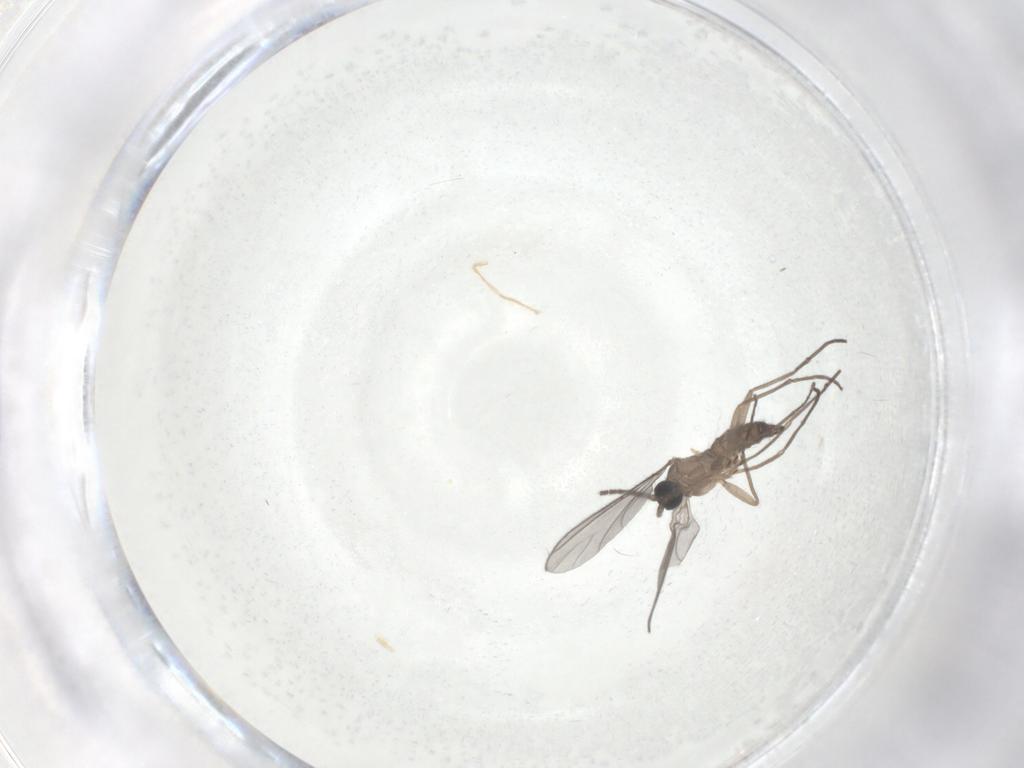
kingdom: Animalia
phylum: Arthropoda
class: Insecta
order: Diptera
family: Sciaridae
